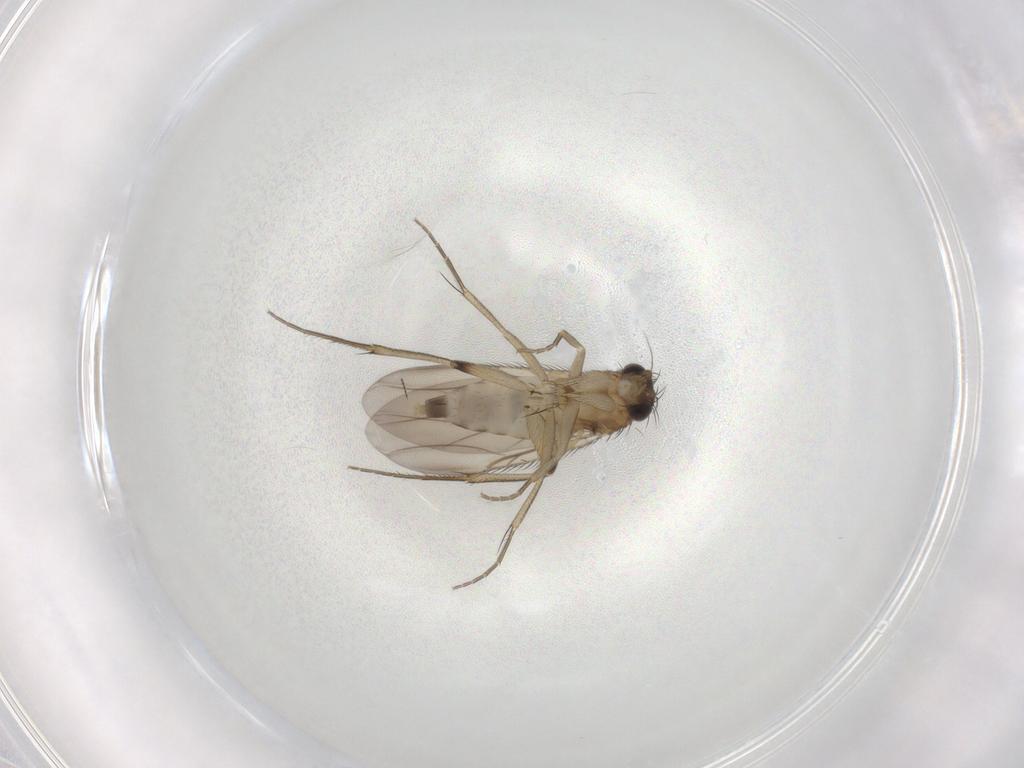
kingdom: Animalia
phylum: Arthropoda
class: Insecta
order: Diptera
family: Phoridae
